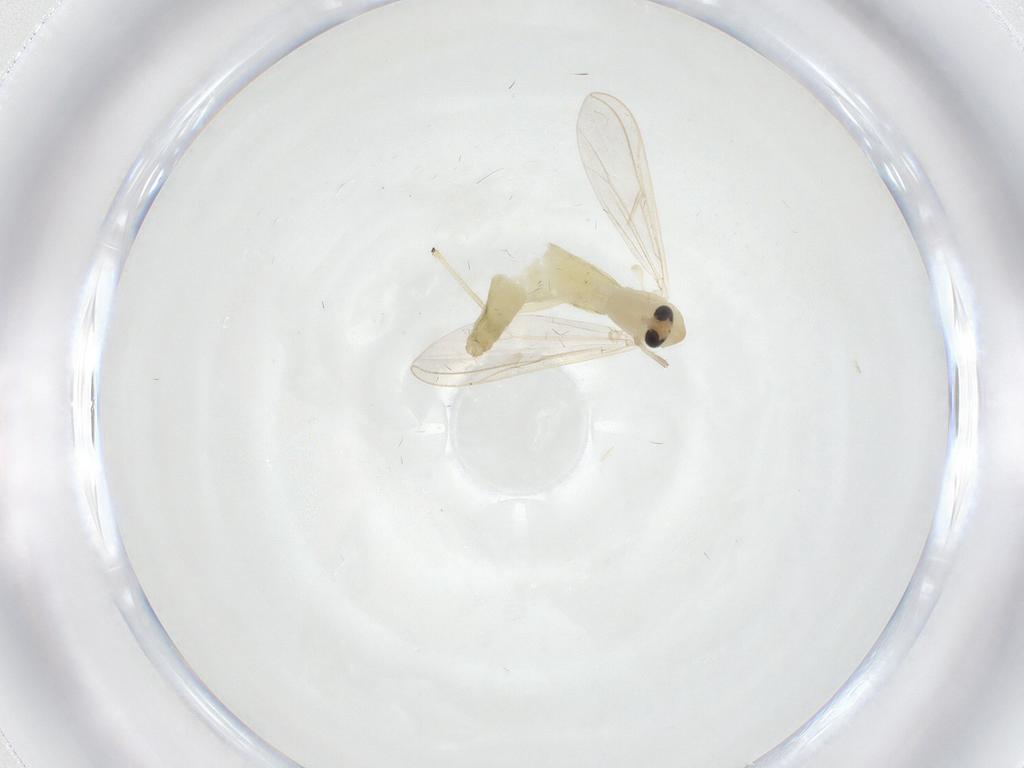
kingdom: Animalia
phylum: Arthropoda
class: Insecta
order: Diptera
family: Chironomidae
